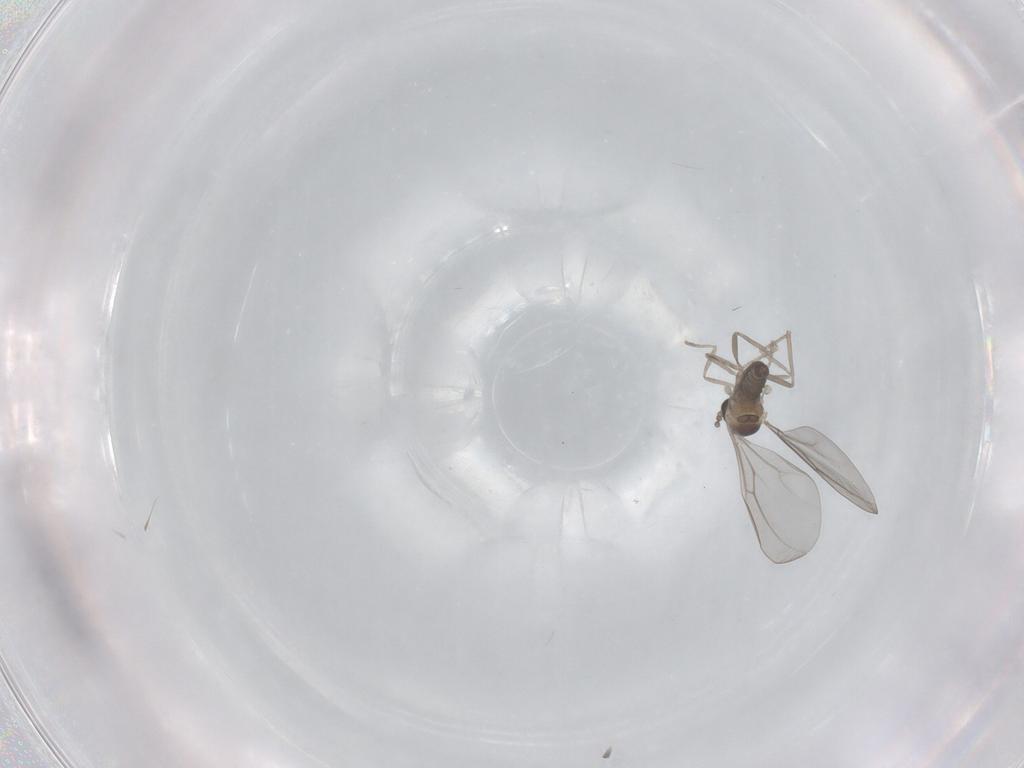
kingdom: Animalia
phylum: Arthropoda
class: Insecta
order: Diptera
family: Cecidomyiidae
